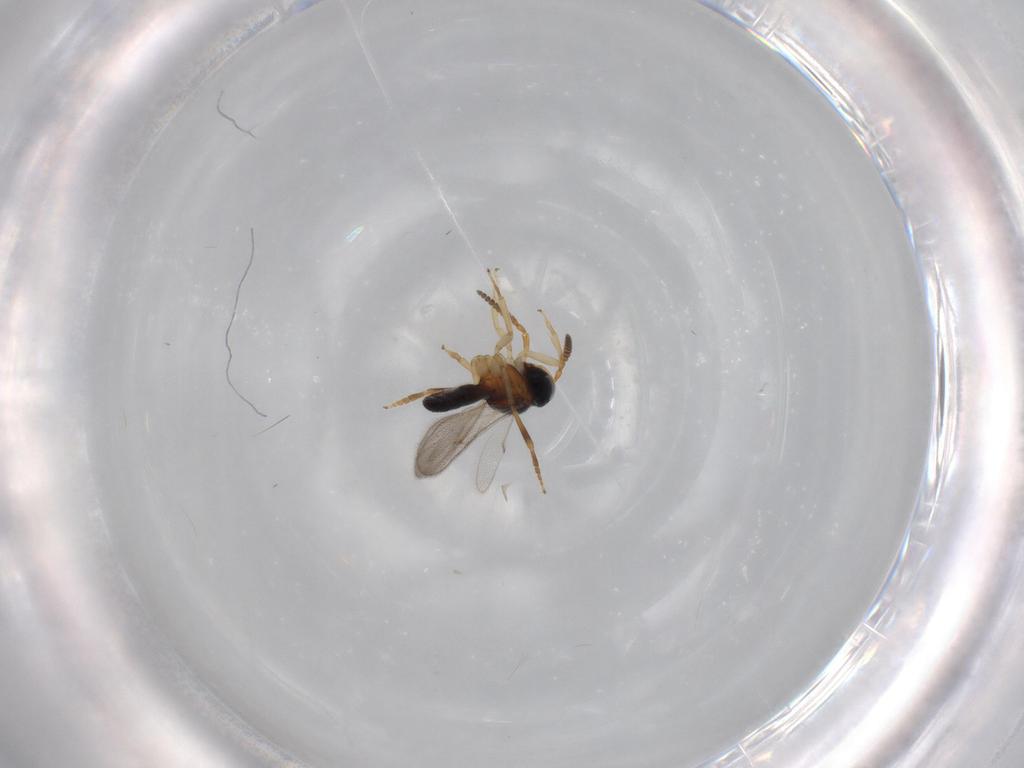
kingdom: Animalia
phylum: Arthropoda
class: Insecta
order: Hymenoptera
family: Scelionidae
